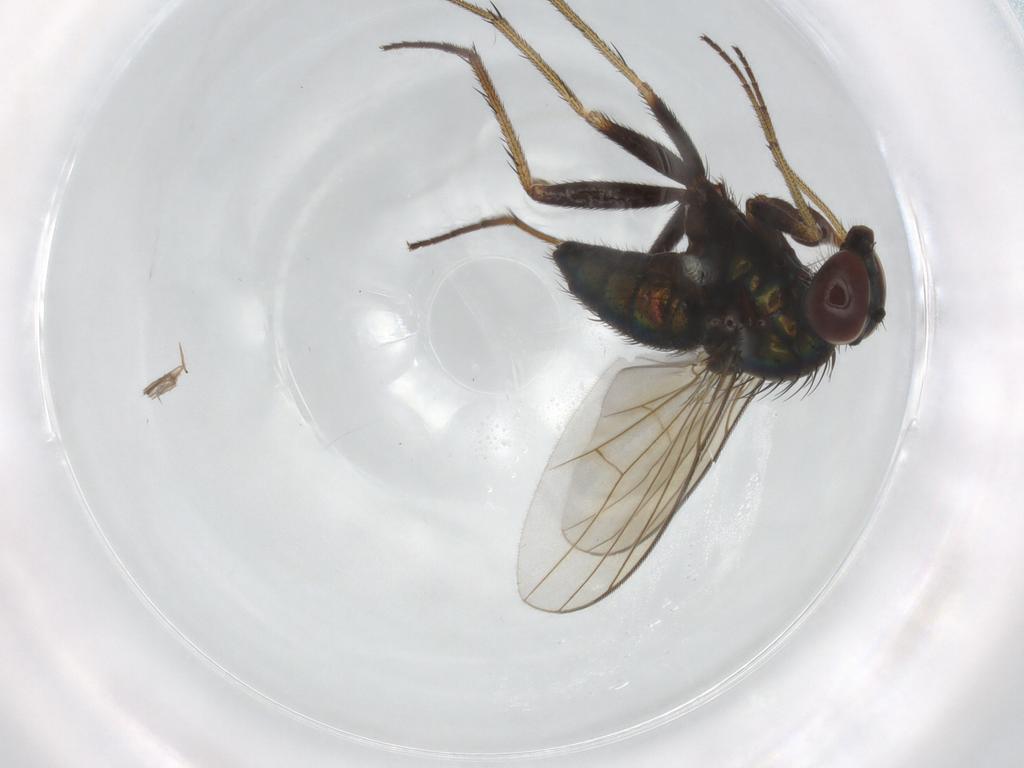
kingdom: Animalia
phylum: Arthropoda
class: Insecta
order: Diptera
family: Dolichopodidae
